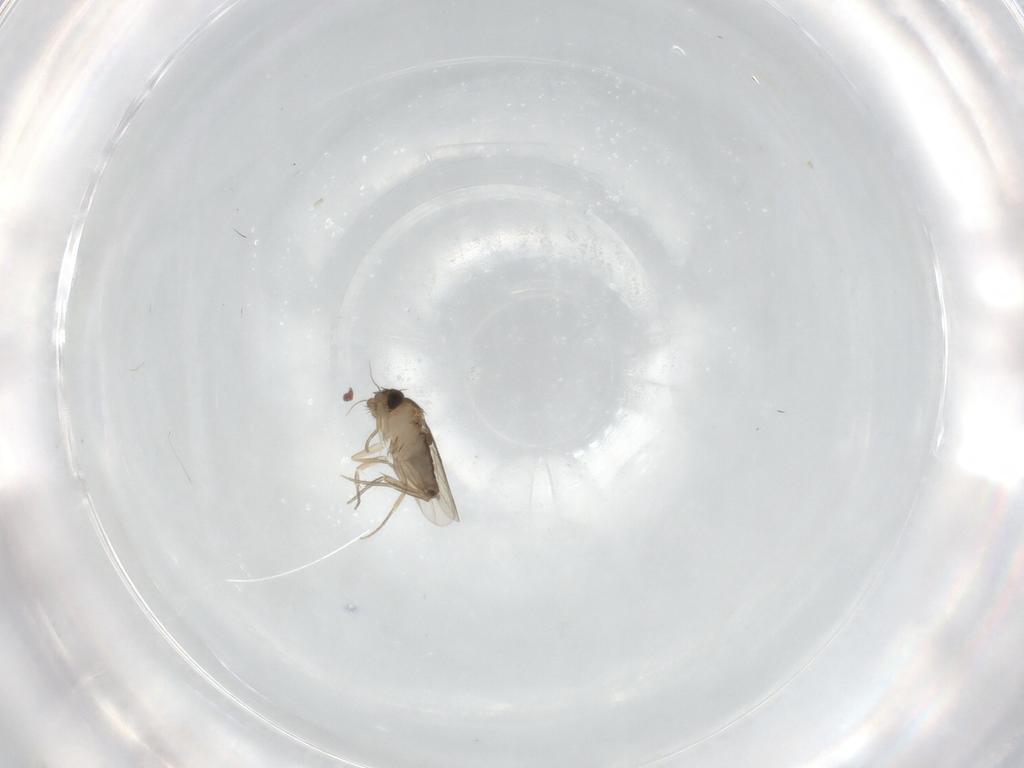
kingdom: Animalia
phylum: Arthropoda
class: Insecta
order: Diptera
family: Phoridae
